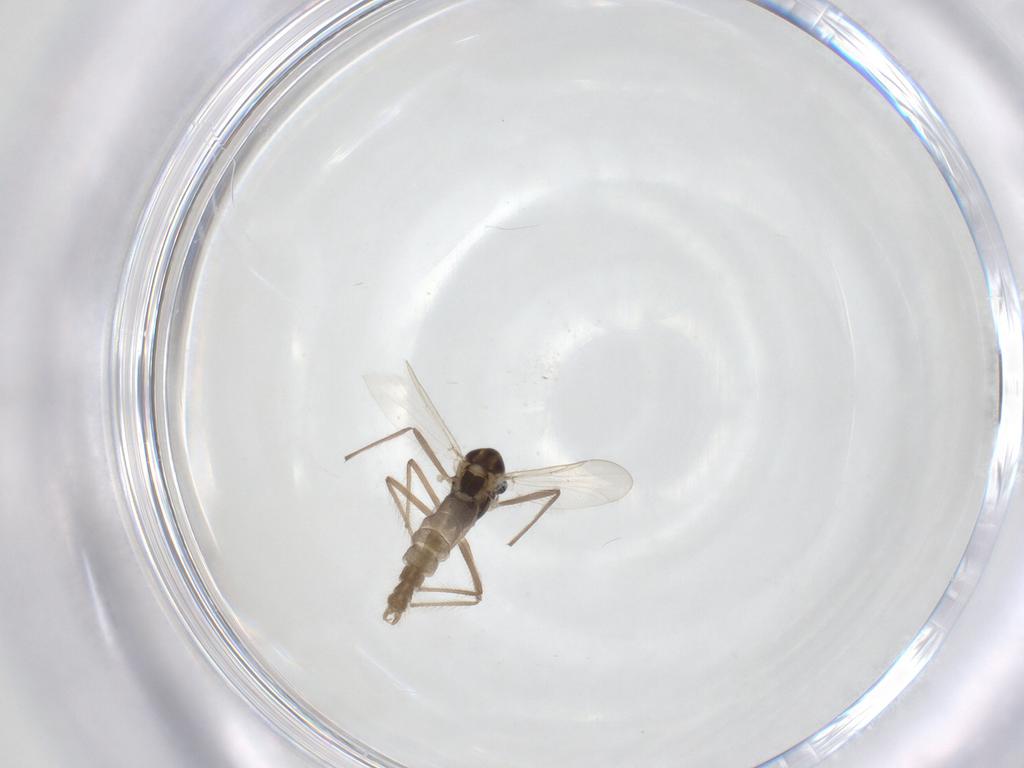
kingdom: Animalia
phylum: Arthropoda
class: Insecta
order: Diptera
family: Chironomidae
